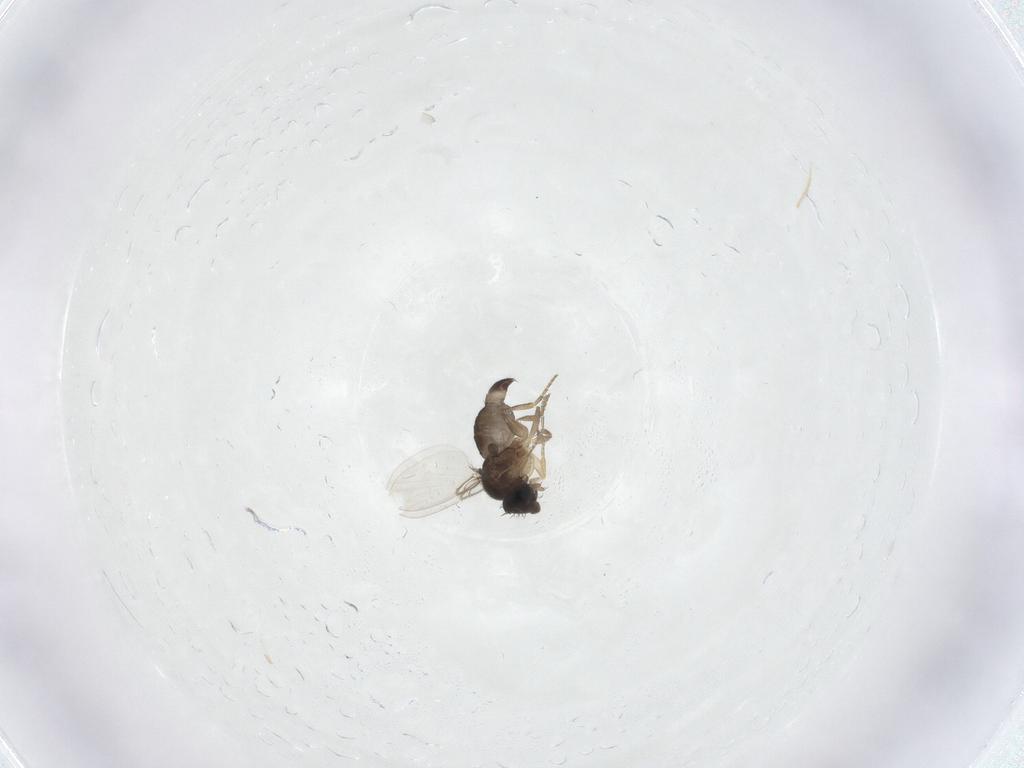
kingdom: Animalia
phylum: Arthropoda
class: Insecta
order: Diptera
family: Phoridae
